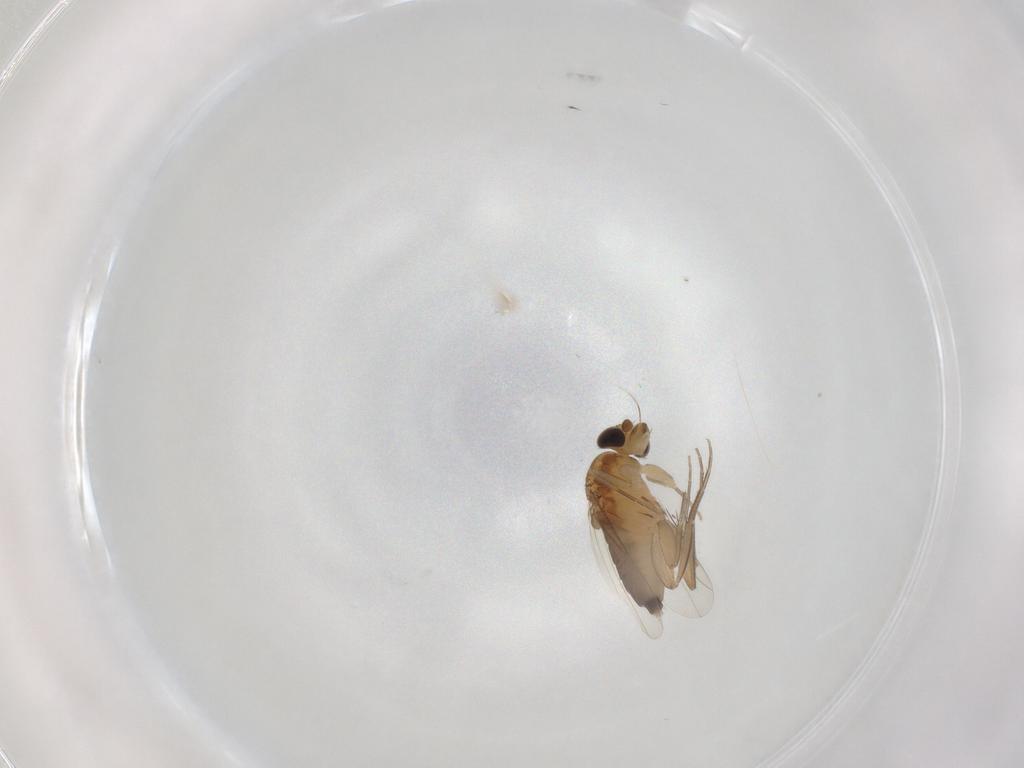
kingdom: Animalia
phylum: Arthropoda
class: Insecta
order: Diptera
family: Phoridae
